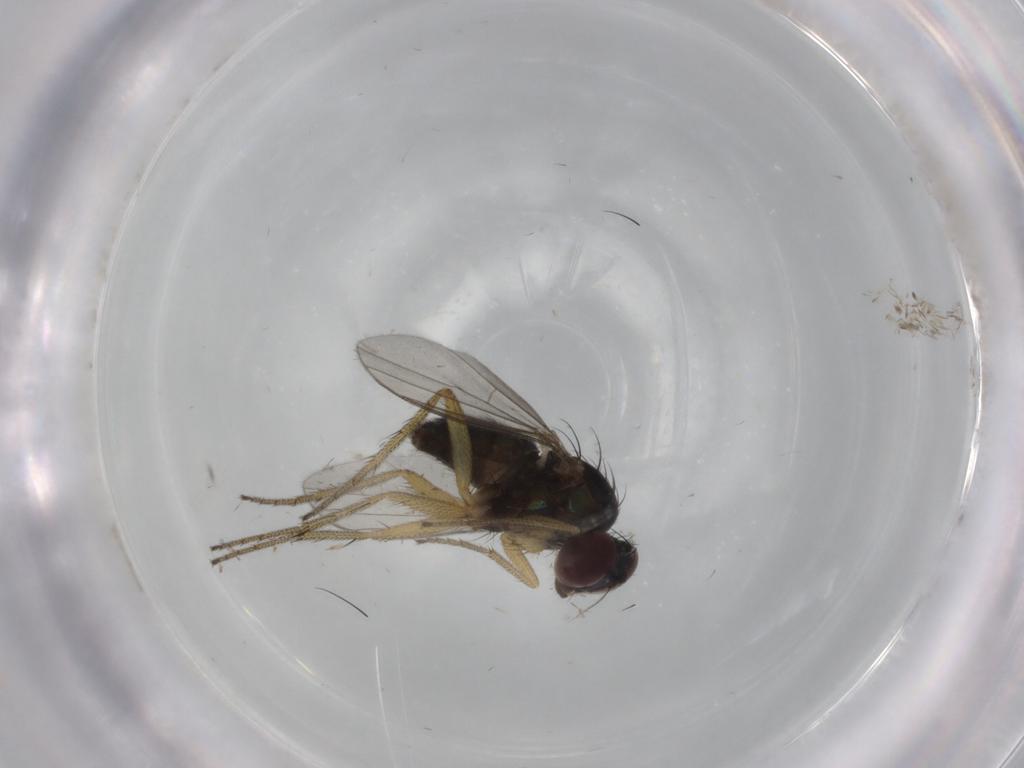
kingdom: Animalia
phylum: Arthropoda
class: Insecta
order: Diptera
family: Dolichopodidae
